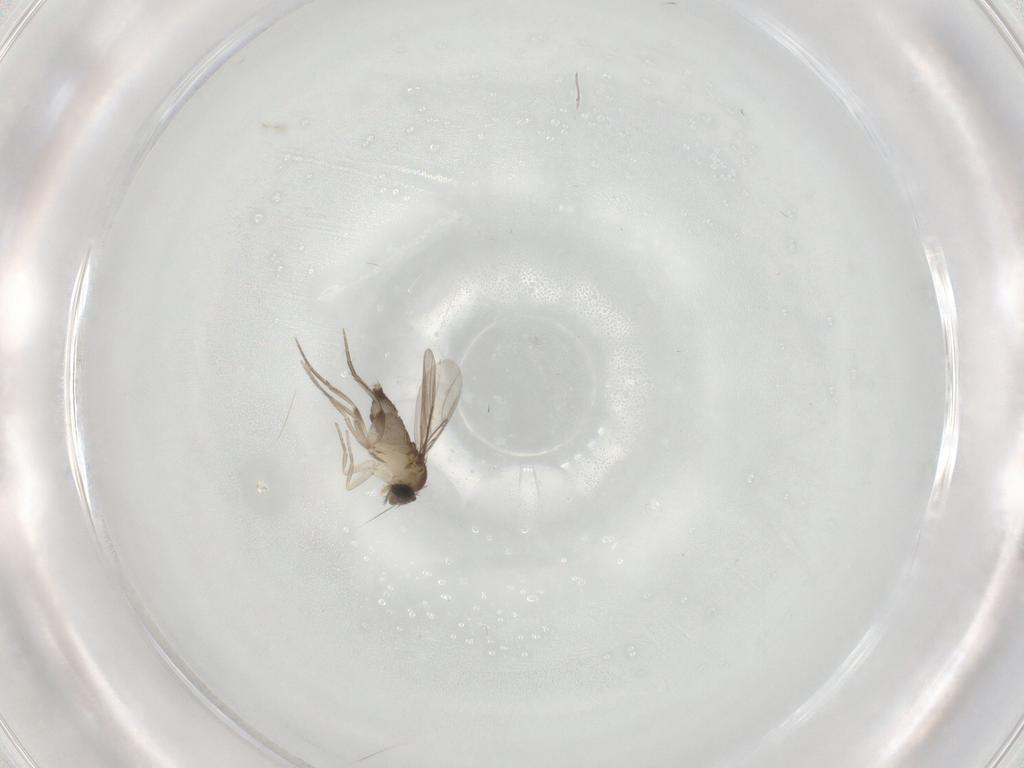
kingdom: Animalia
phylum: Arthropoda
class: Insecta
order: Diptera
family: Phoridae
